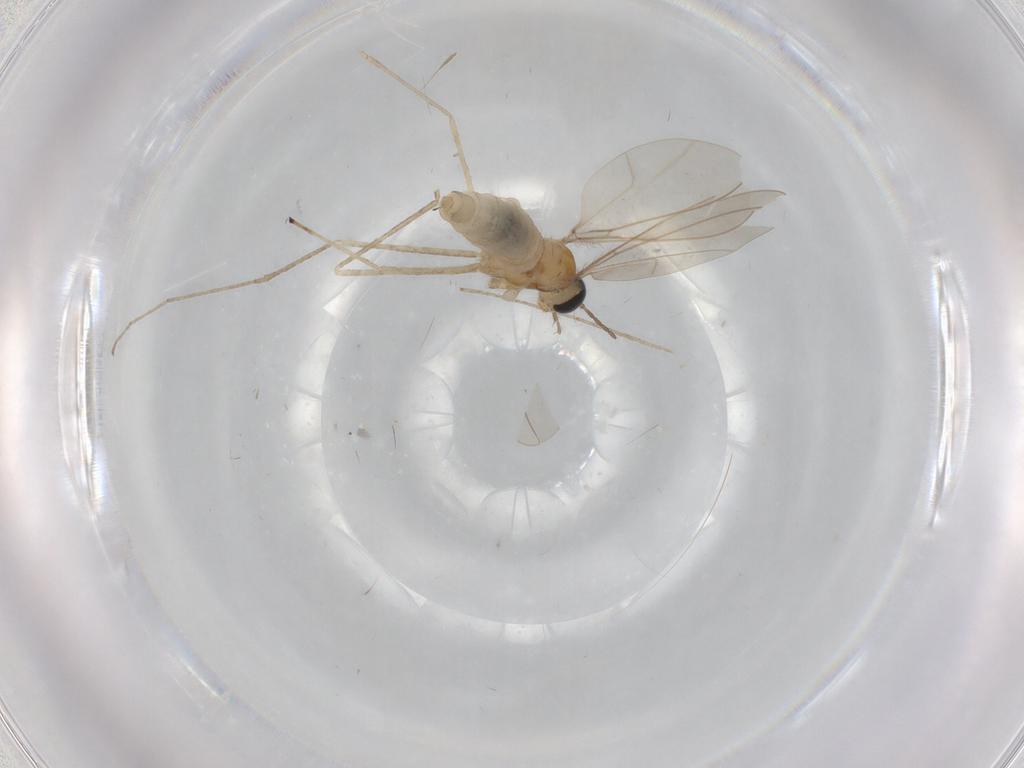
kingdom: Animalia
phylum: Arthropoda
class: Insecta
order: Diptera
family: Cecidomyiidae
